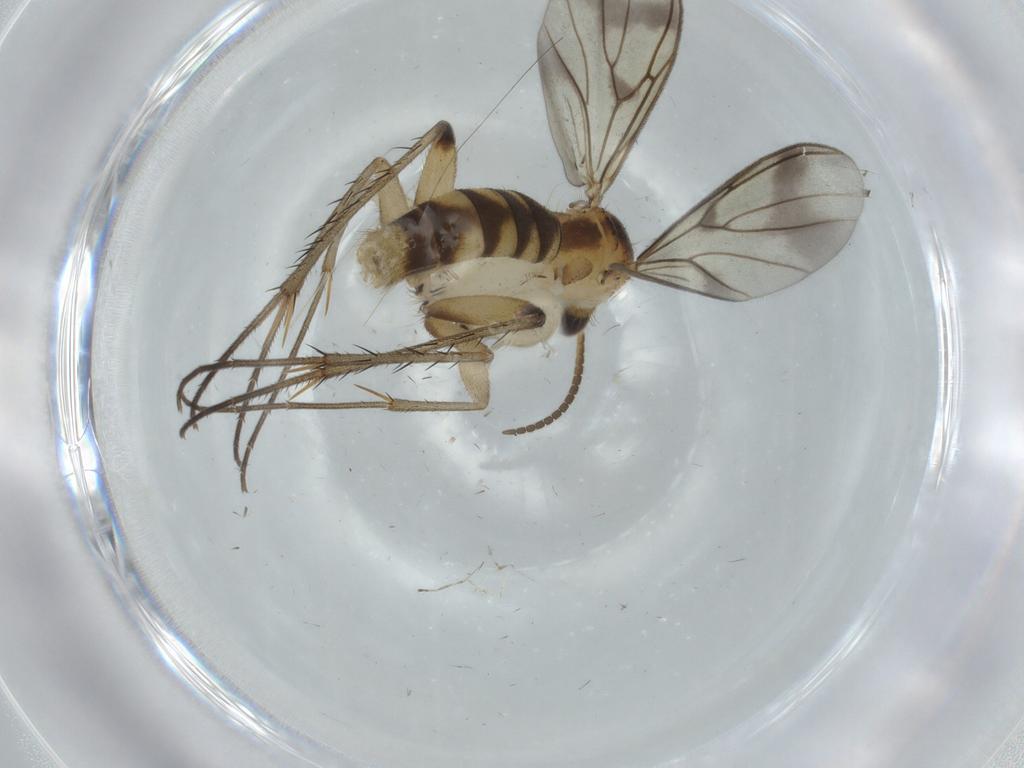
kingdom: Animalia
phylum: Arthropoda
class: Insecta
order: Diptera
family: Phoridae
